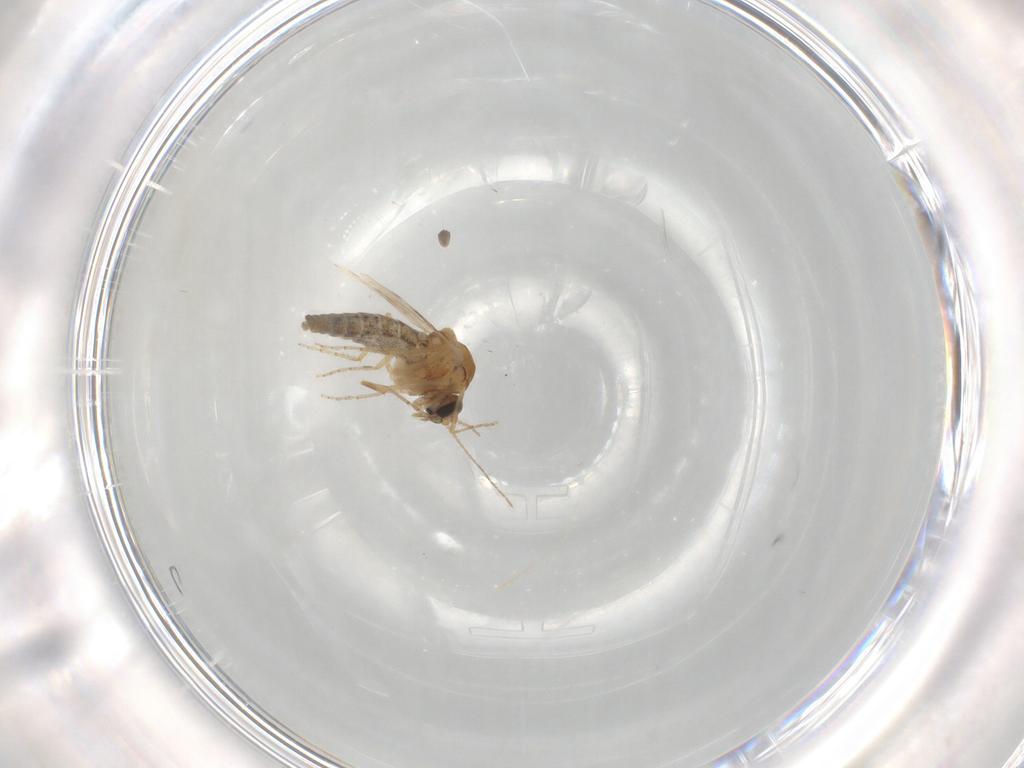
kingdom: Animalia
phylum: Arthropoda
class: Insecta
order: Diptera
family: Ceratopogonidae
